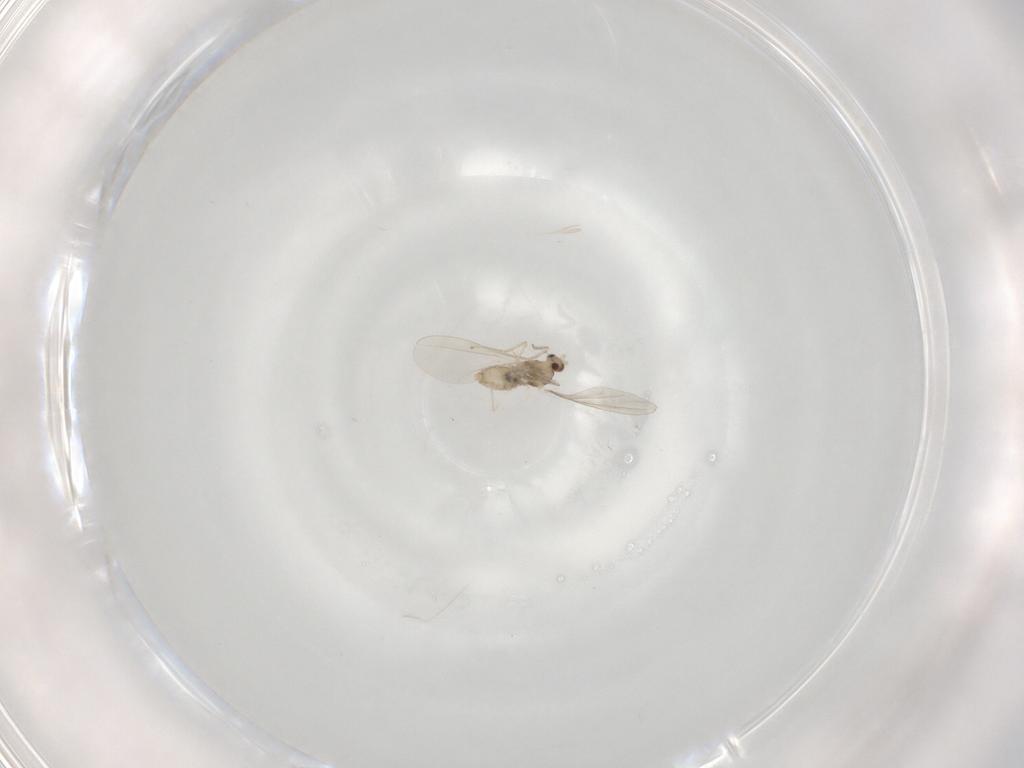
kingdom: Animalia
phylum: Arthropoda
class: Insecta
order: Diptera
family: Cecidomyiidae
